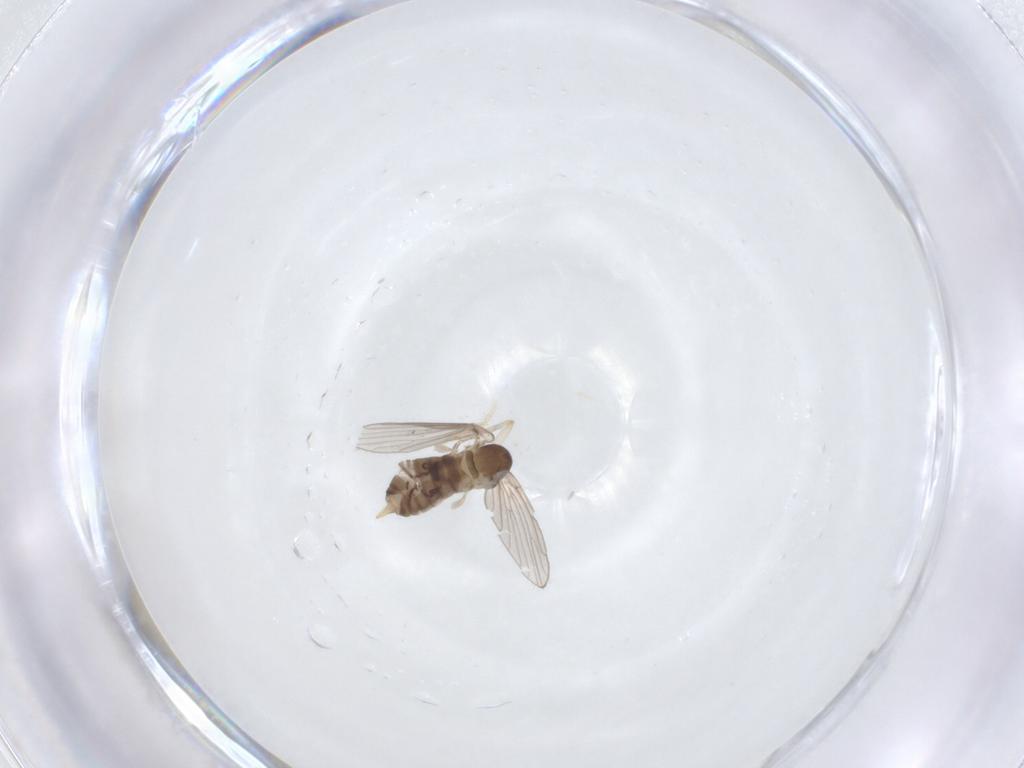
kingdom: Animalia
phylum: Arthropoda
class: Insecta
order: Diptera
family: Psychodidae
